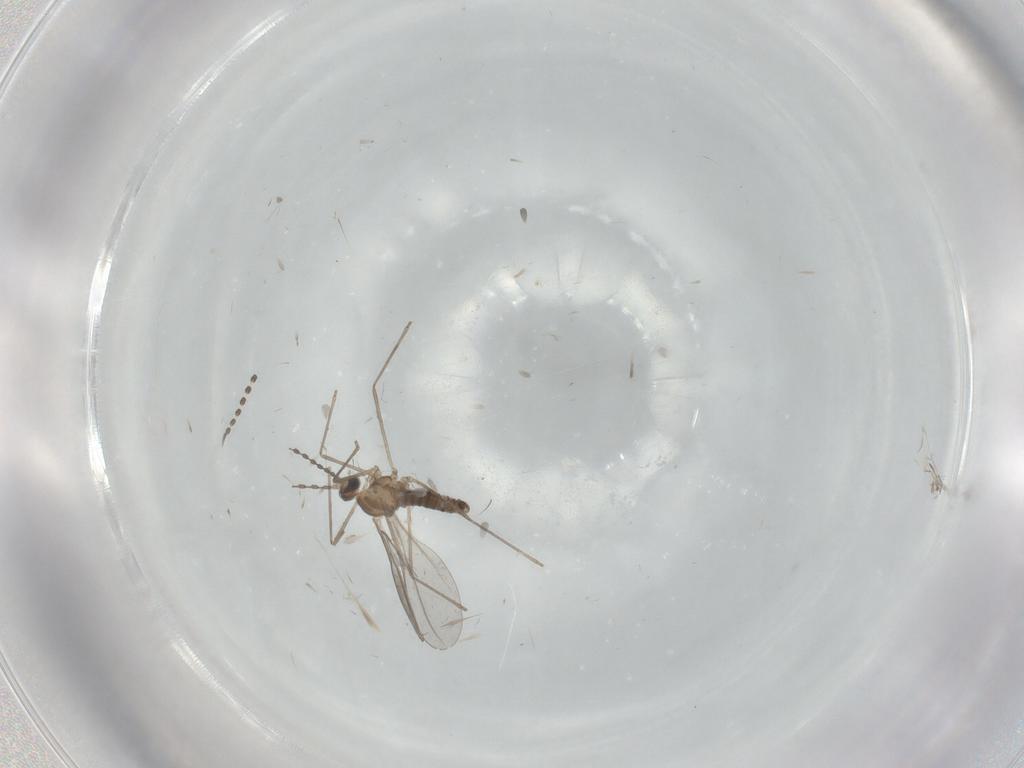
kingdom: Animalia
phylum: Arthropoda
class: Insecta
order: Diptera
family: Cecidomyiidae
